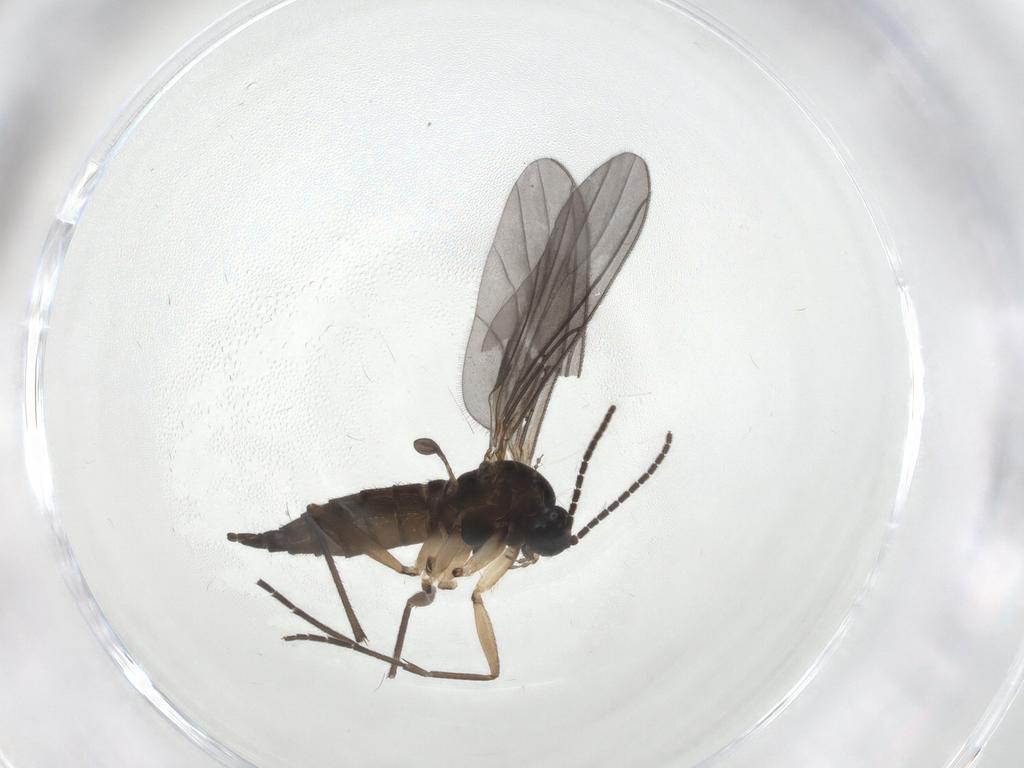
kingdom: Animalia
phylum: Arthropoda
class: Insecta
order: Diptera
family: Sciaridae
